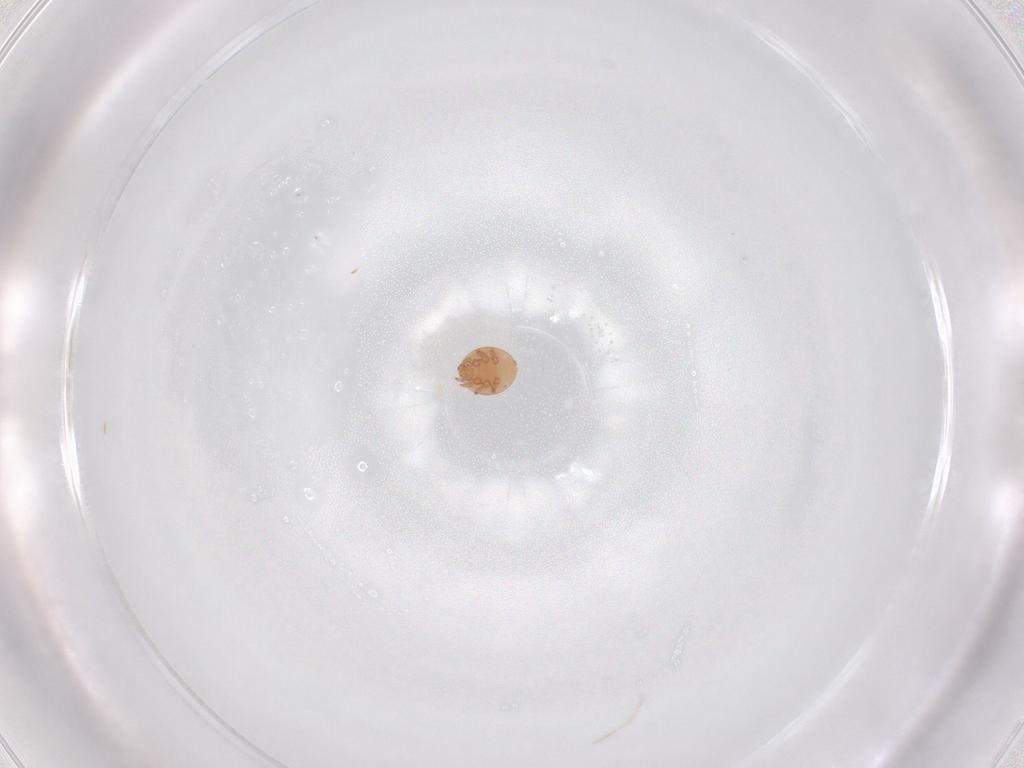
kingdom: Animalia
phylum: Arthropoda
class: Arachnida
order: Mesostigmata
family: Trematuridae
